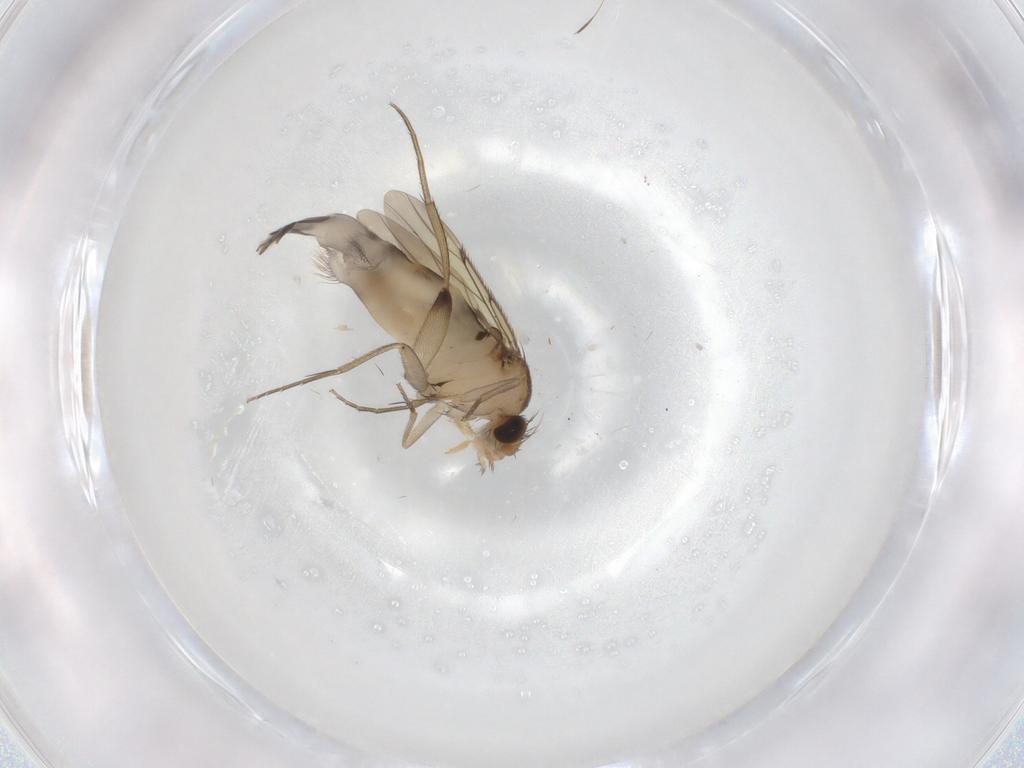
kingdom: Animalia
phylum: Arthropoda
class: Insecta
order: Diptera
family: Phoridae
